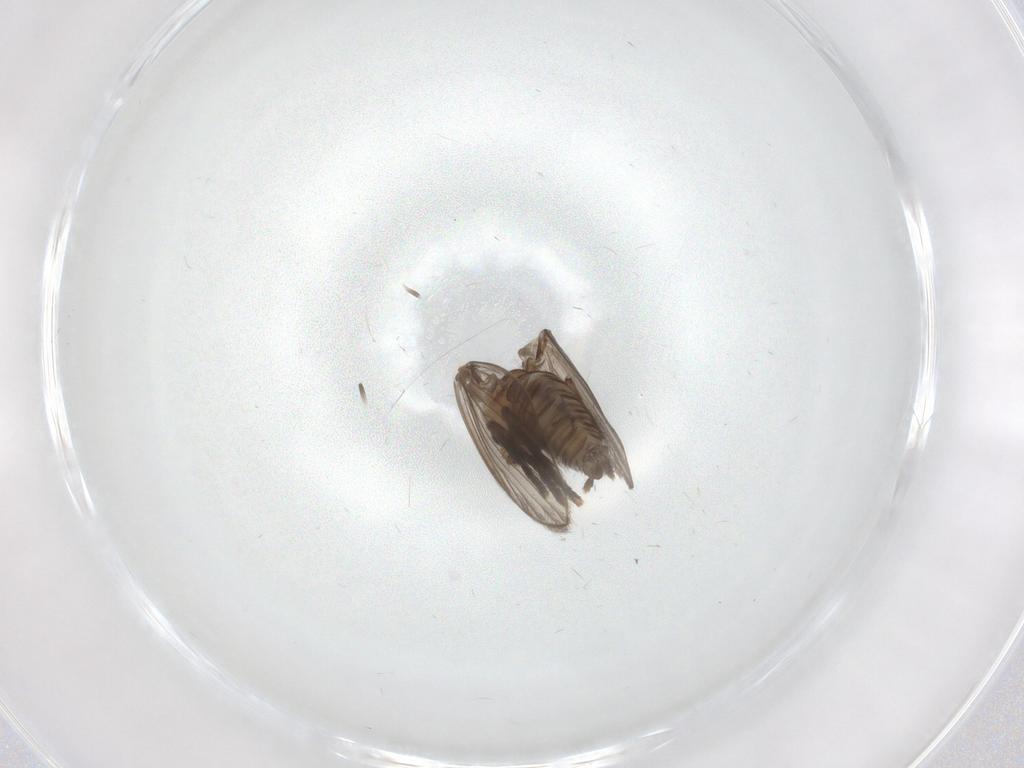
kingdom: Animalia
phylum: Arthropoda
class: Insecta
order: Diptera
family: Psychodidae
